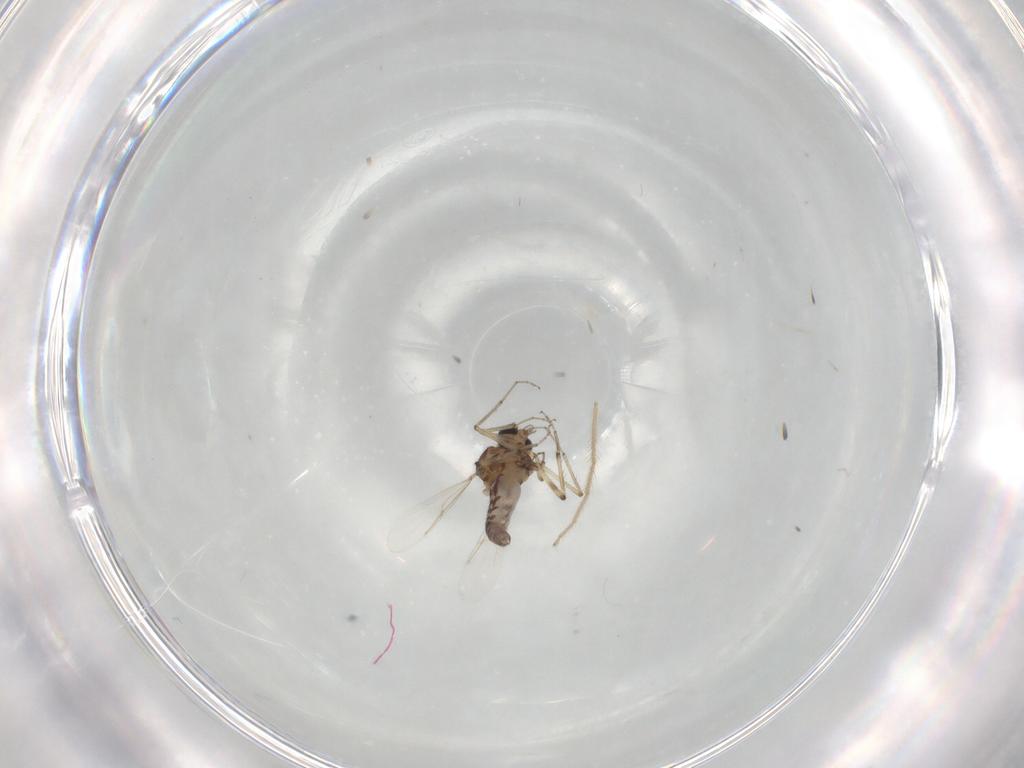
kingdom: Animalia
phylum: Arthropoda
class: Insecta
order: Diptera
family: Ceratopogonidae
